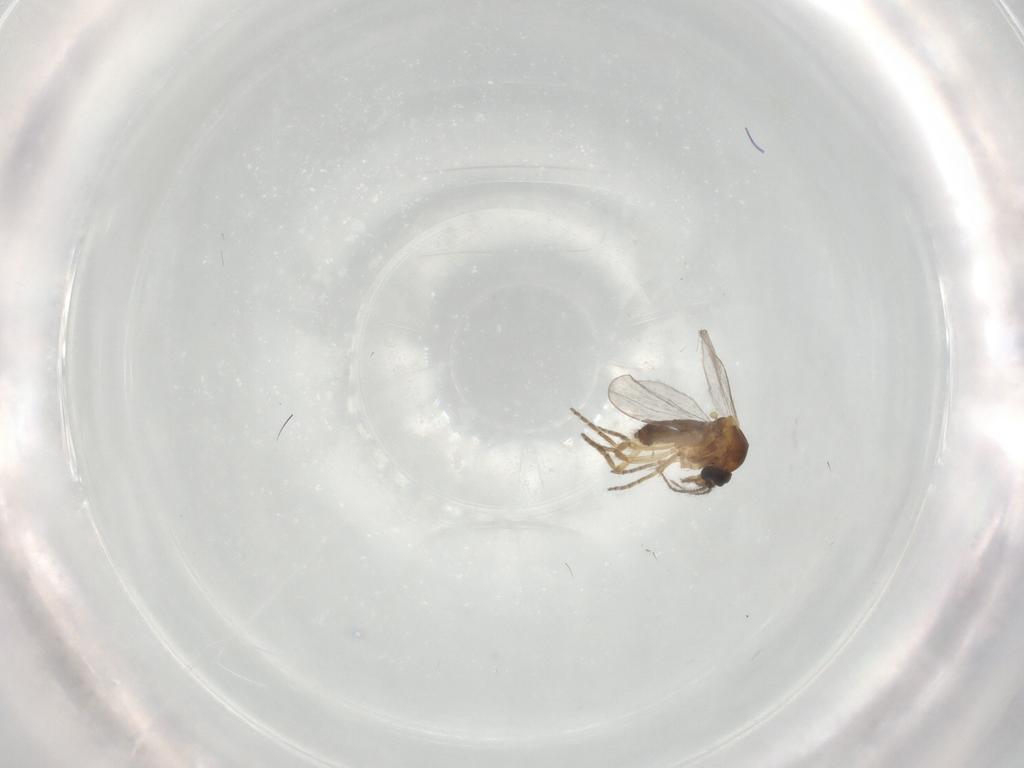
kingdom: Animalia
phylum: Arthropoda
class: Insecta
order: Diptera
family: Ceratopogonidae
